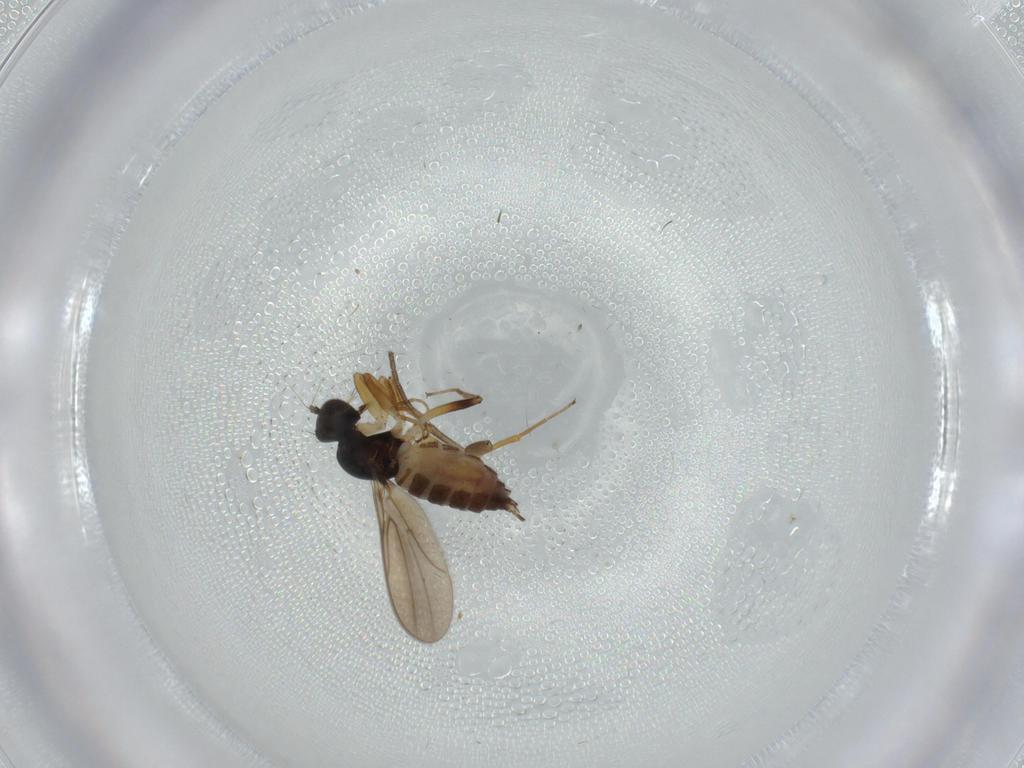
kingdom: Animalia
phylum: Arthropoda
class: Insecta
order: Diptera
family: Hybotidae
